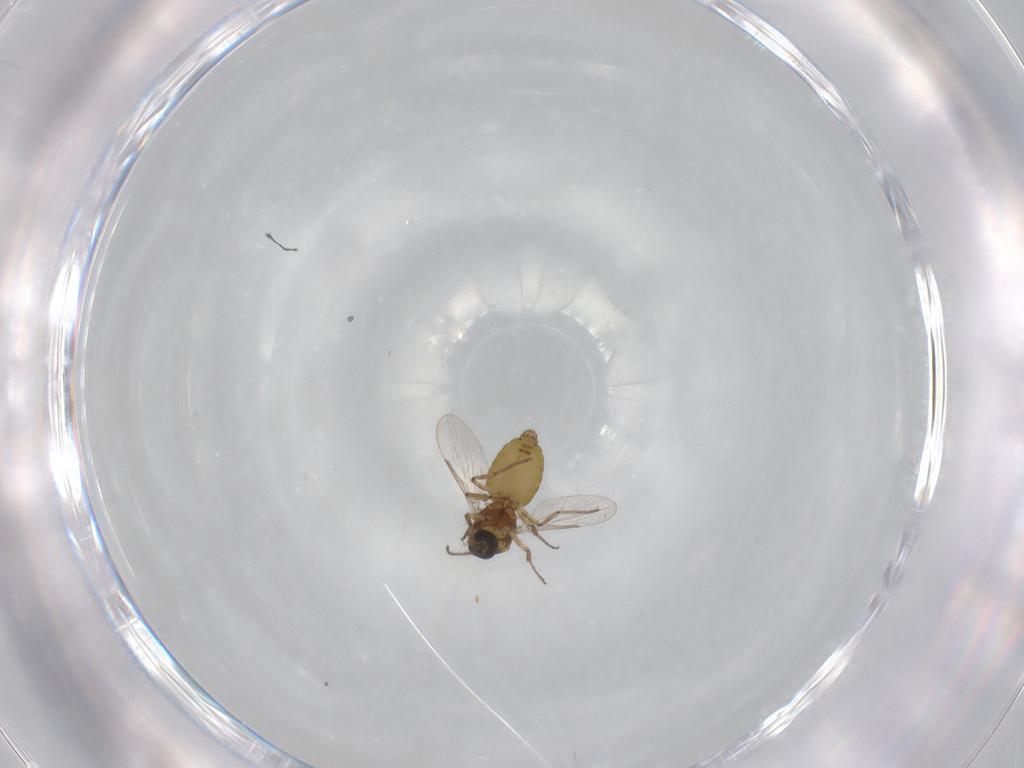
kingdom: Animalia
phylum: Arthropoda
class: Insecta
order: Diptera
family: Ceratopogonidae
